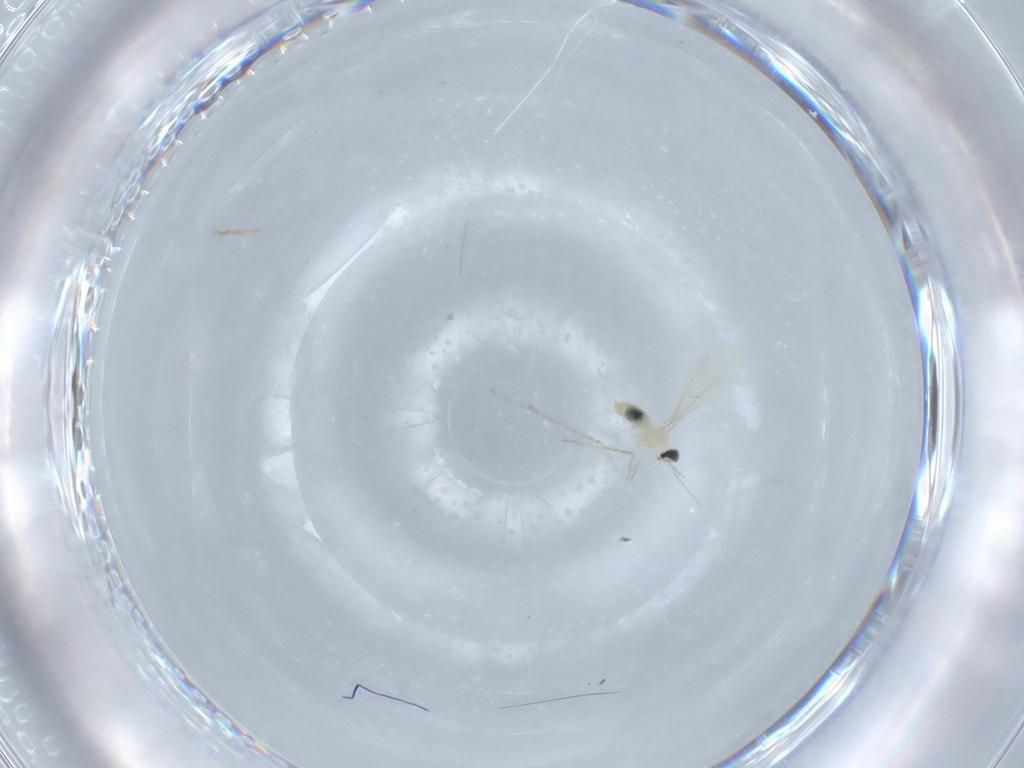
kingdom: Animalia
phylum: Arthropoda
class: Insecta
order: Diptera
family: Cecidomyiidae
